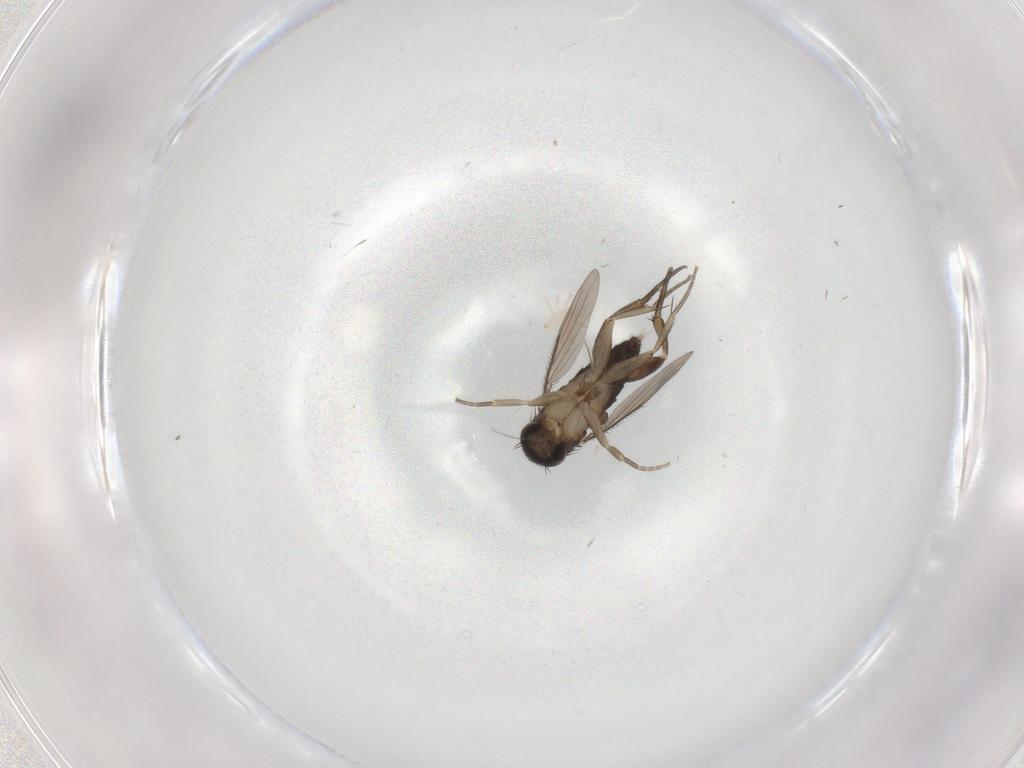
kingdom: Animalia
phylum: Arthropoda
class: Insecta
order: Diptera
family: Phoridae
